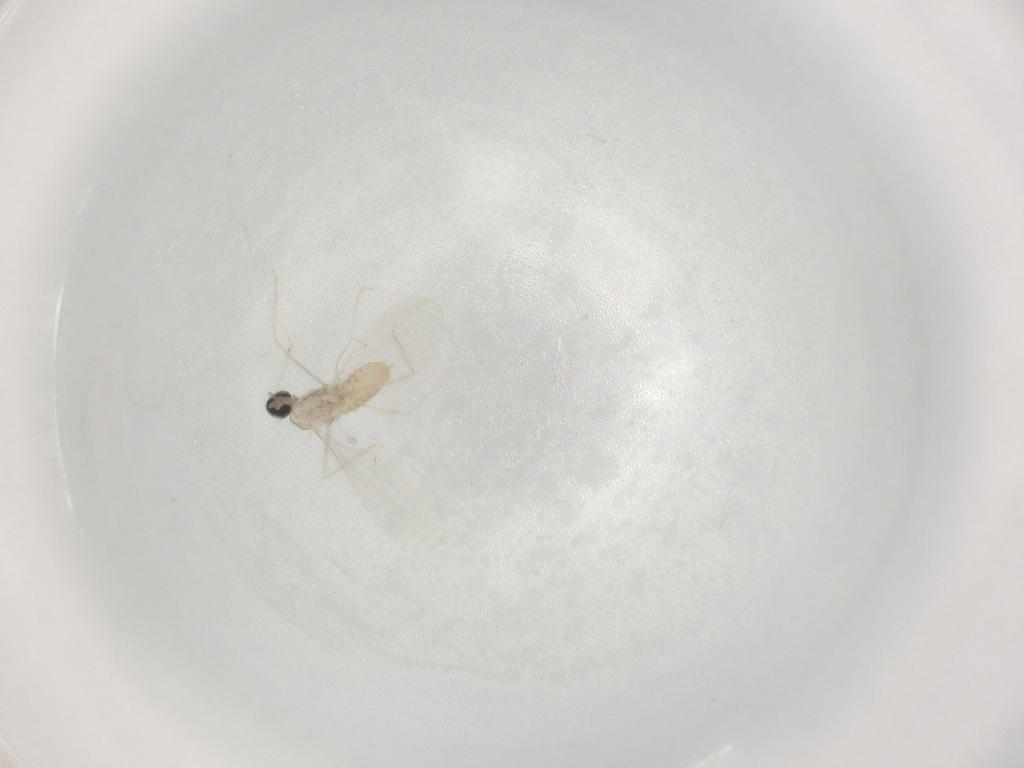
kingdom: Animalia
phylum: Arthropoda
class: Insecta
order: Diptera
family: Cecidomyiidae
